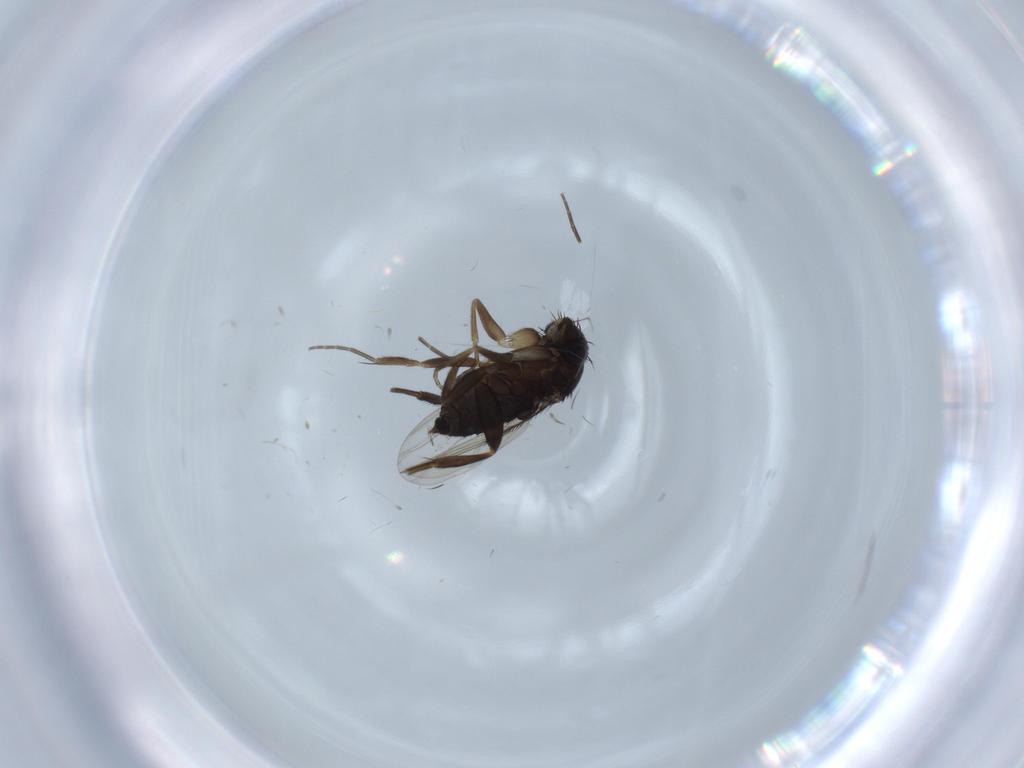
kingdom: Animalia
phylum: Arthropoda
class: Insecta
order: Diptera
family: Phoridae
